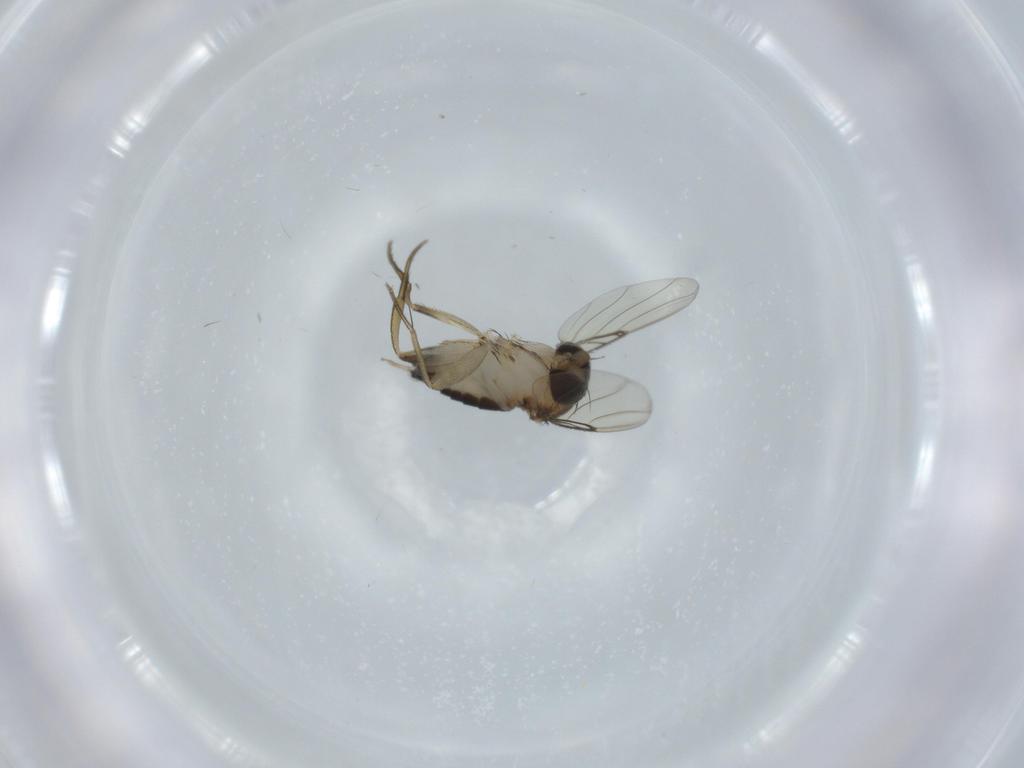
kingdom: Animalia
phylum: Arthropoda
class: Insecta
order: Diptera
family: Phoridae
